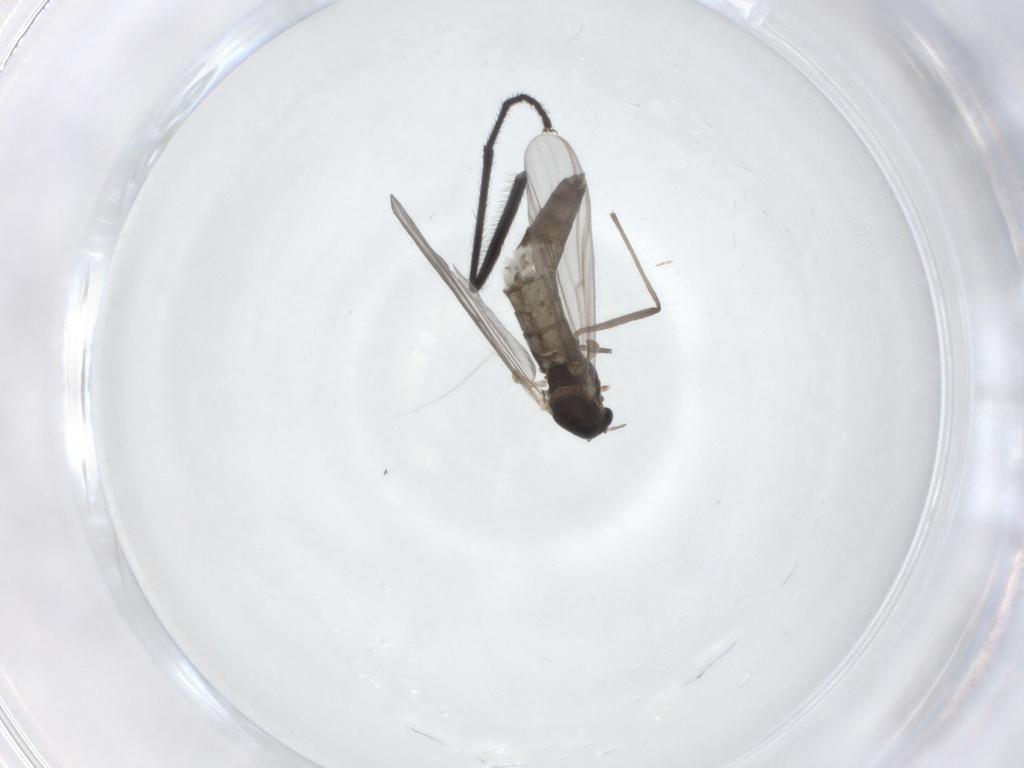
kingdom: Animalia
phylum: Arthropoda
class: Insecta
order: Diptera
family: Chironomidae
